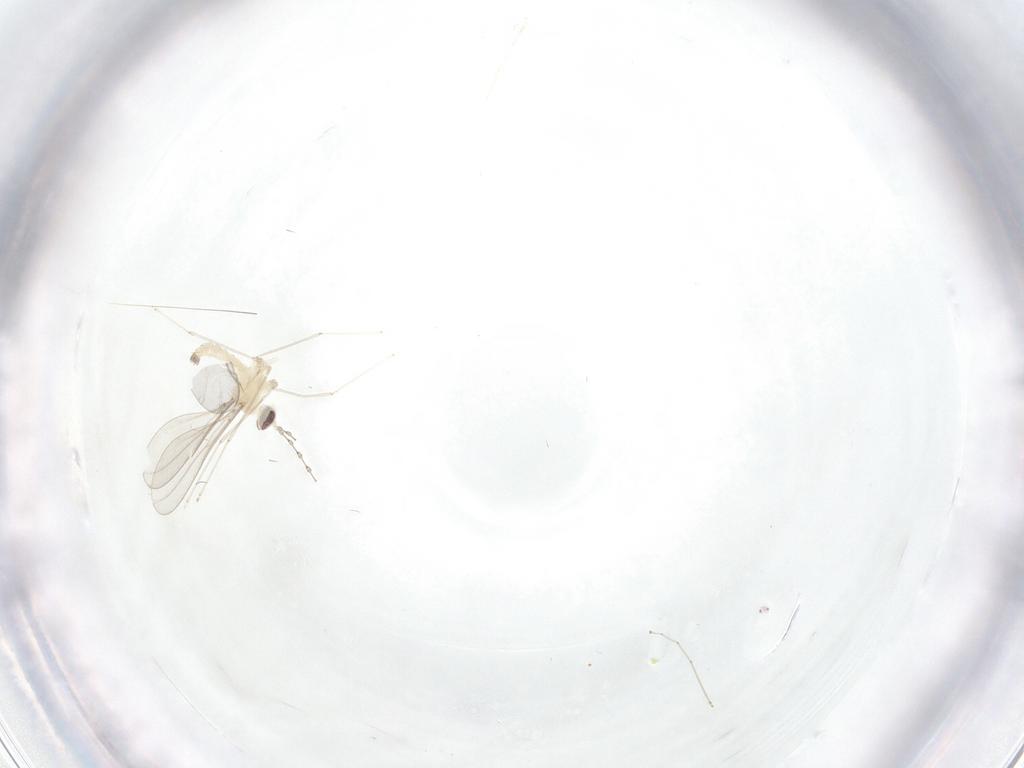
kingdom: Animalia
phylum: Arthropoda
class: Insecta
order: Diptera
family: Cecidomyiidae
